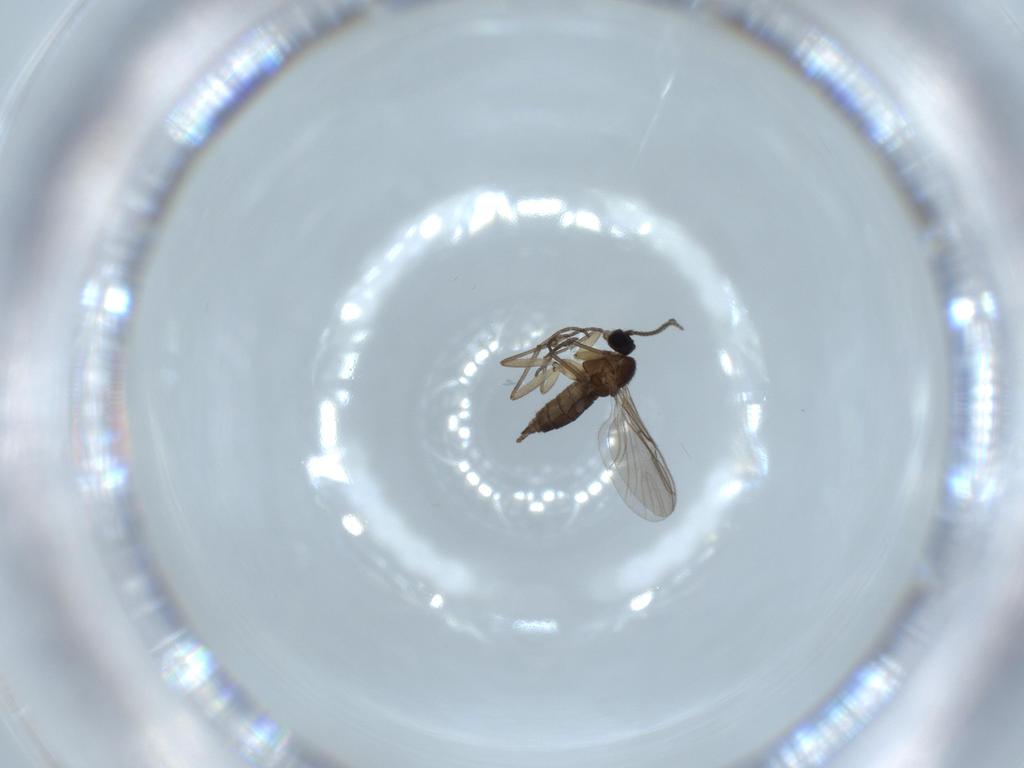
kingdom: Animalia
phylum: Arthropoda
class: Insecta
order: Diptera
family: Sciaridae
